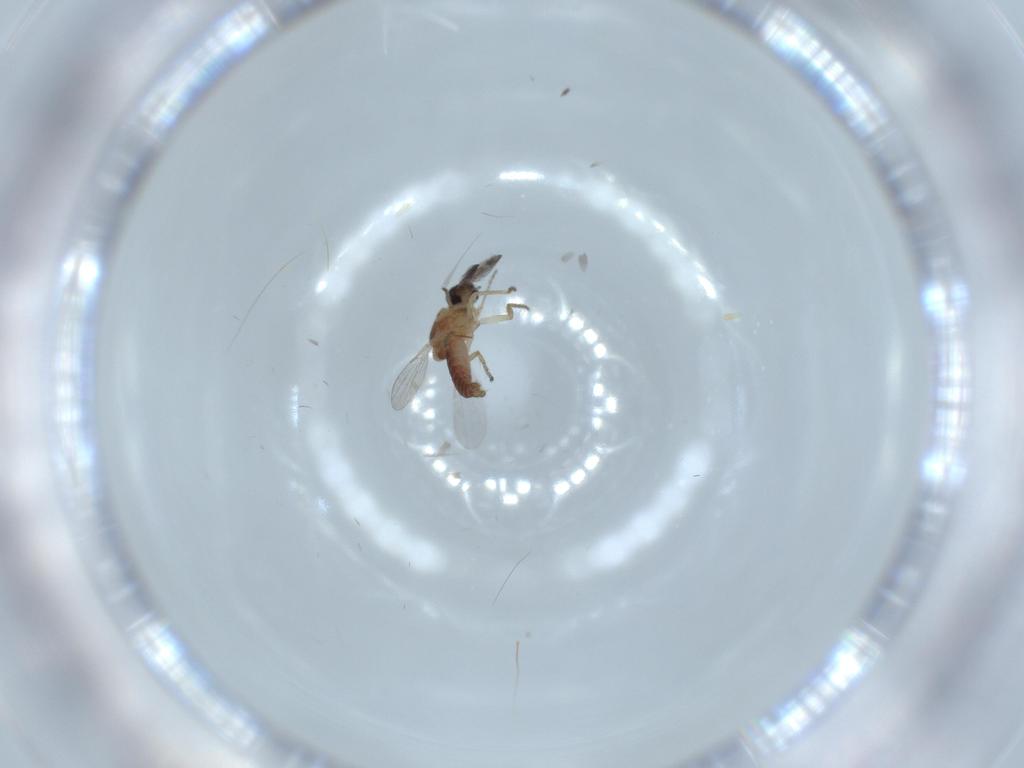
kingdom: Animalia
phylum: Arthropoda
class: Insecta
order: Diptera
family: Ceratopogonidae
